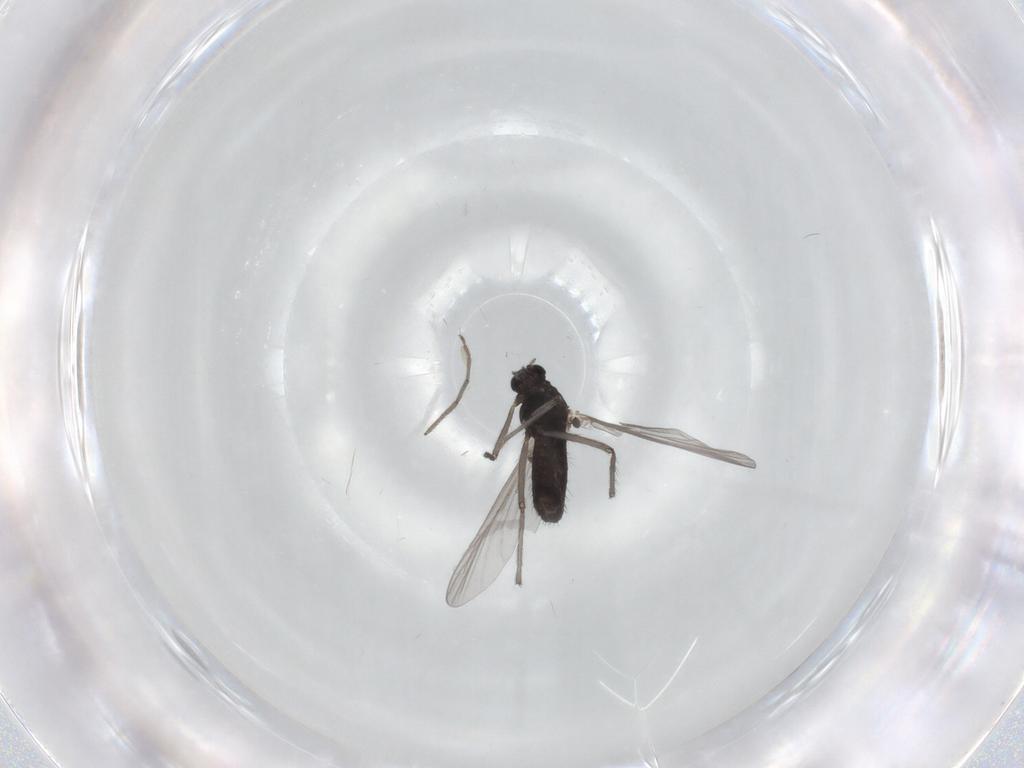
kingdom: Animalia
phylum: Arthropoda
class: Insecta
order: Diptera
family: Chironomidae
